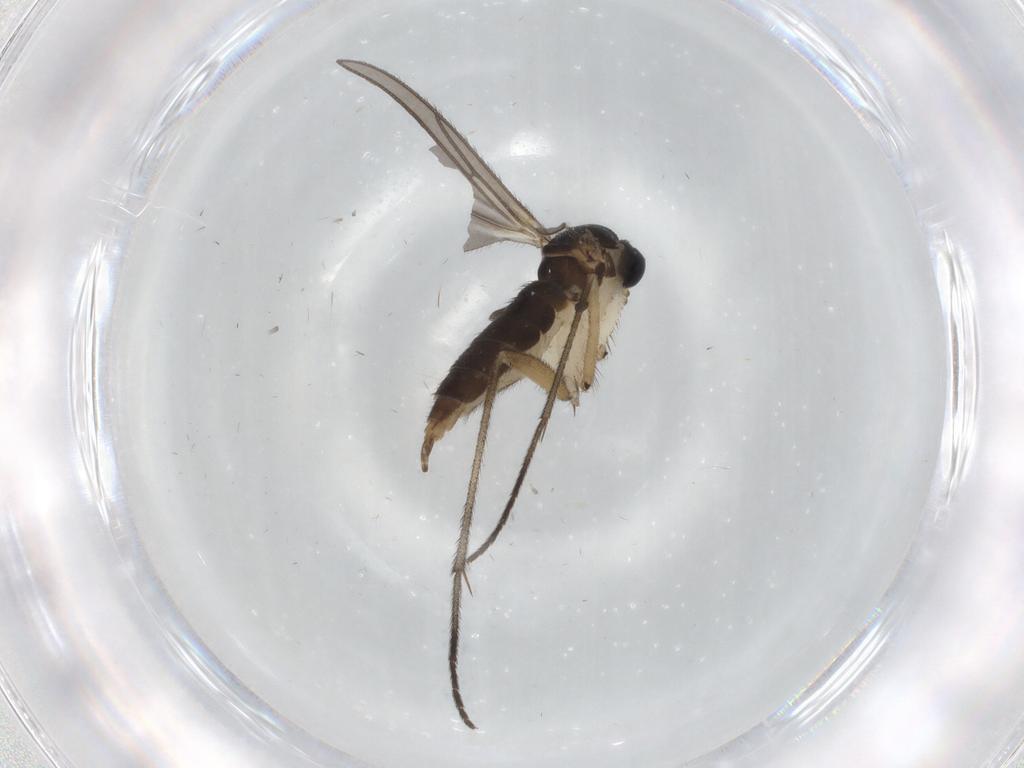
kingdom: Animalia
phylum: Arthropoda
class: Insecta
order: Diptera
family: Sciaridae
